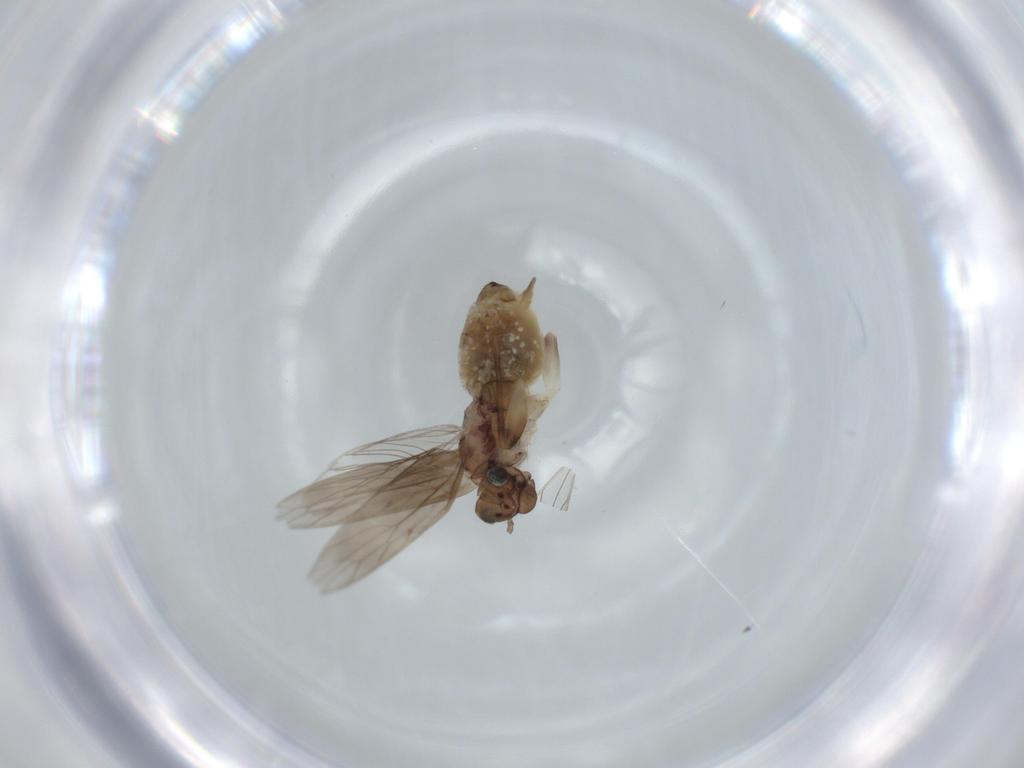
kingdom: Animalia
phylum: Arthropoda
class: Insecta
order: Psocodea
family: Lepidopsocidae
